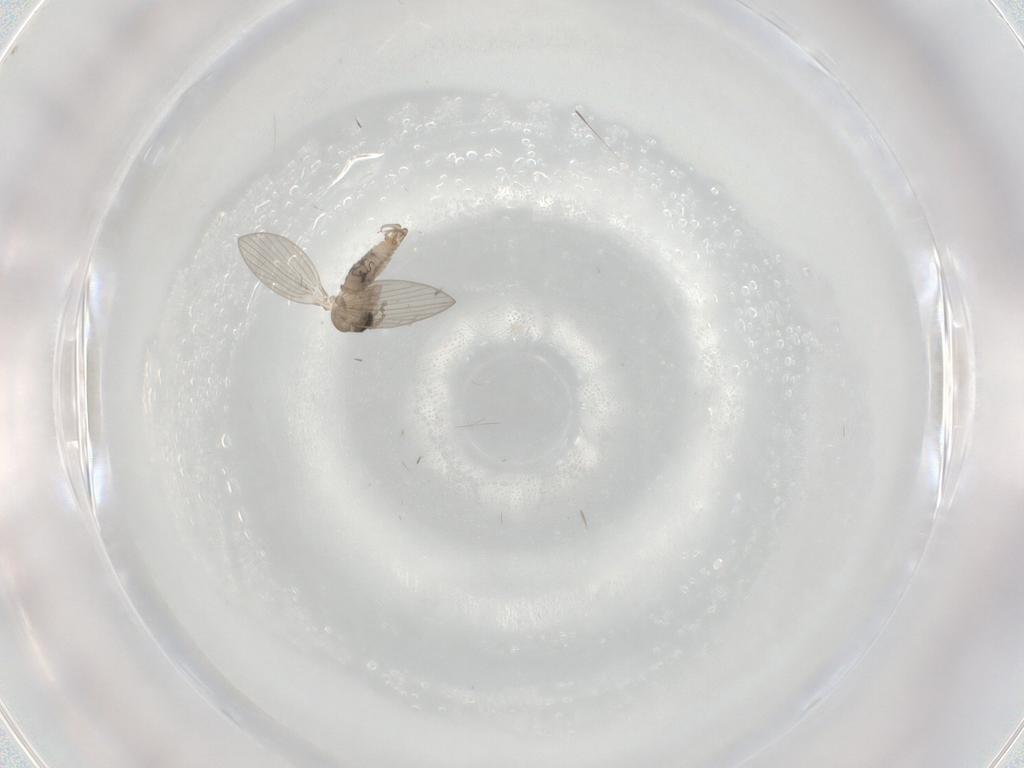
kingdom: Animalia
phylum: Arthropoda
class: Insecta
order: Diptera
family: Psychodidae
